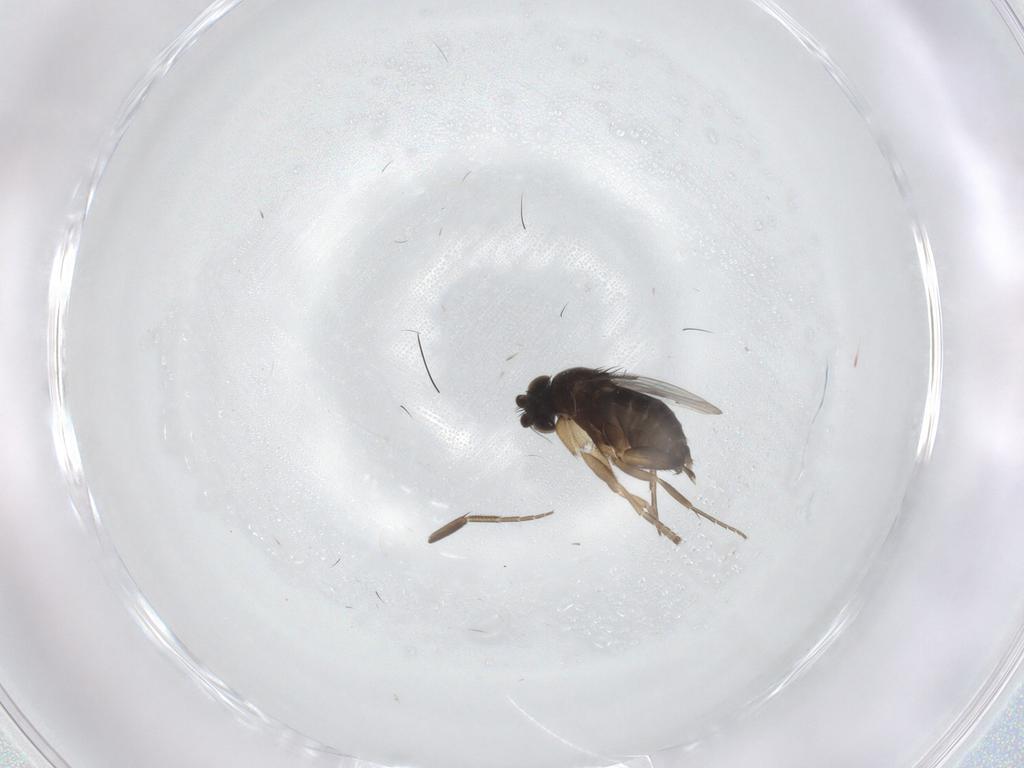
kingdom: Animalia
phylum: Arthropoda
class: Insecta
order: Diptera
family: Phoridae
